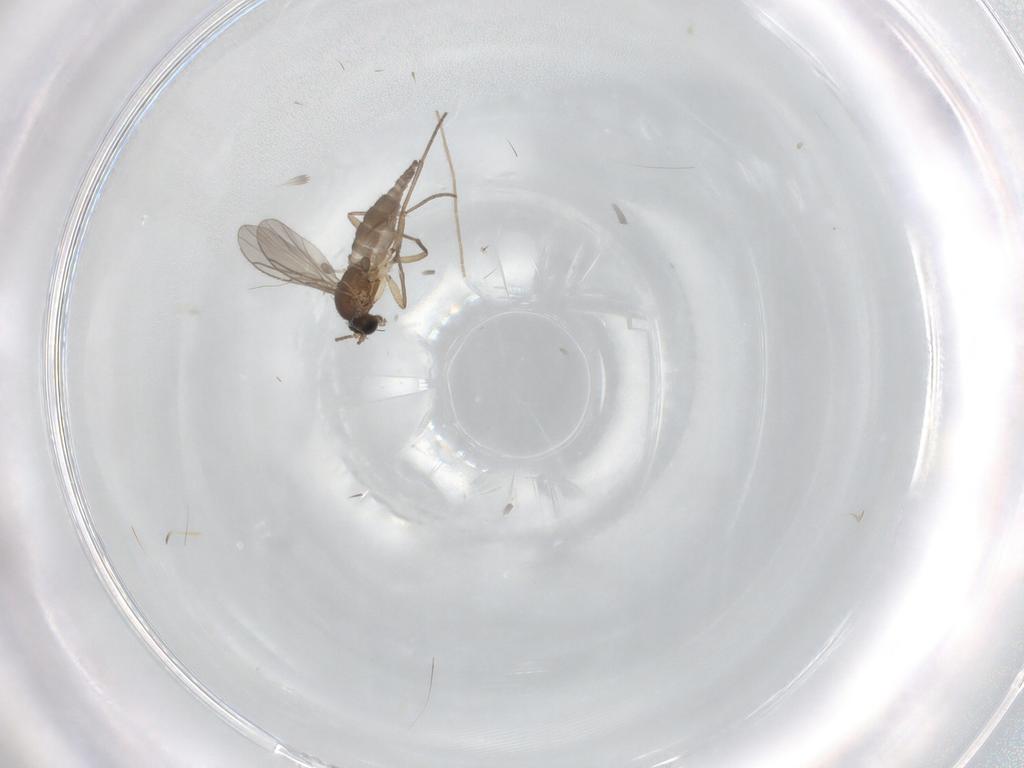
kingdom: Animalia
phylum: Arthropoda
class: Insecta
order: Diptera
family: Sciaridae
